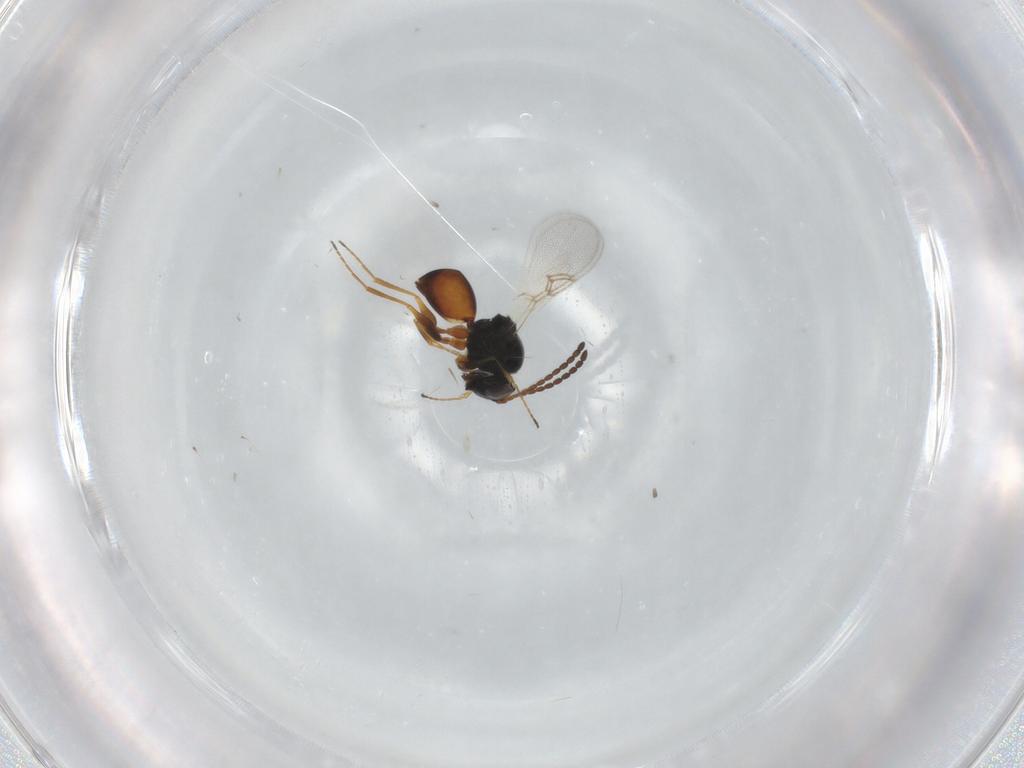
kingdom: Animalia
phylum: Arthropoda
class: Insecta
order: Hymenoptera
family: Figitidae
